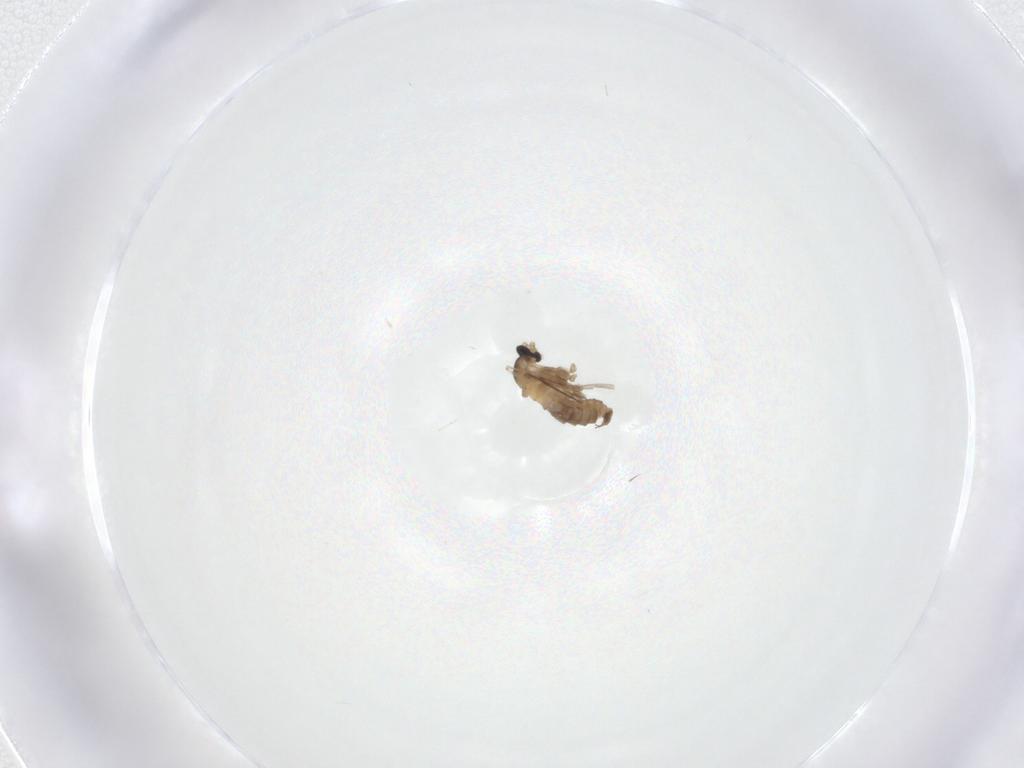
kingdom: Animalia
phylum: Arthropoda
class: Insecta
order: Diptera
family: Cecidomyiidae
